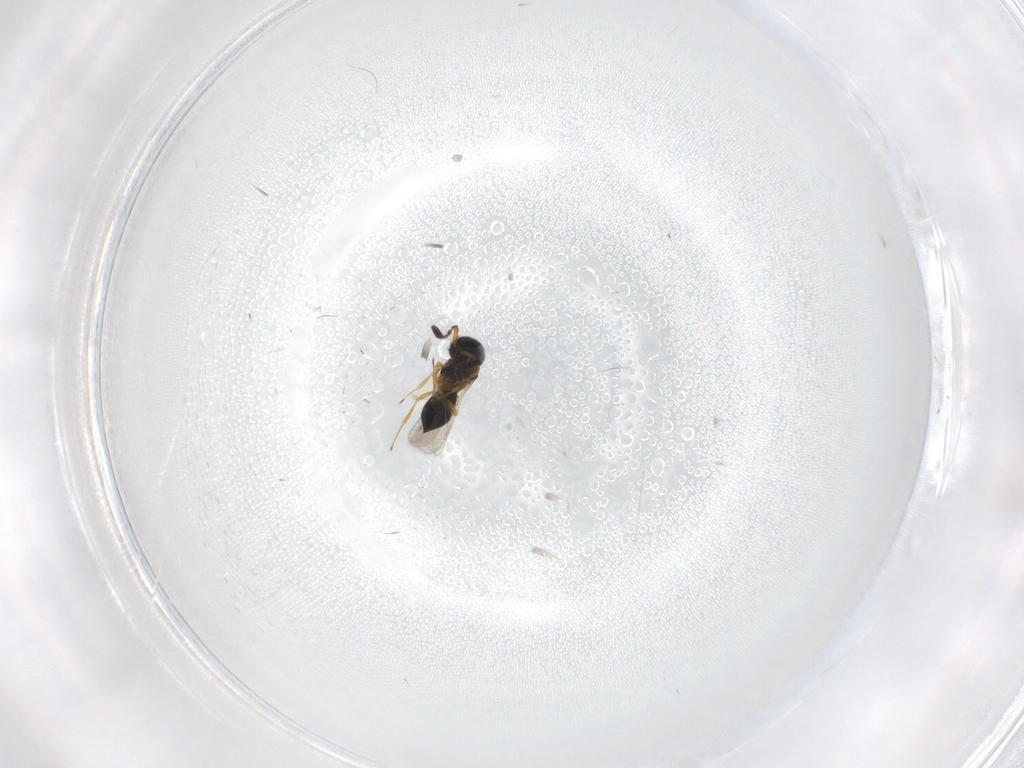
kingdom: Animalia
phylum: Arthropoda
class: Insecta
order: Hymenoptera
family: Scelionidae
